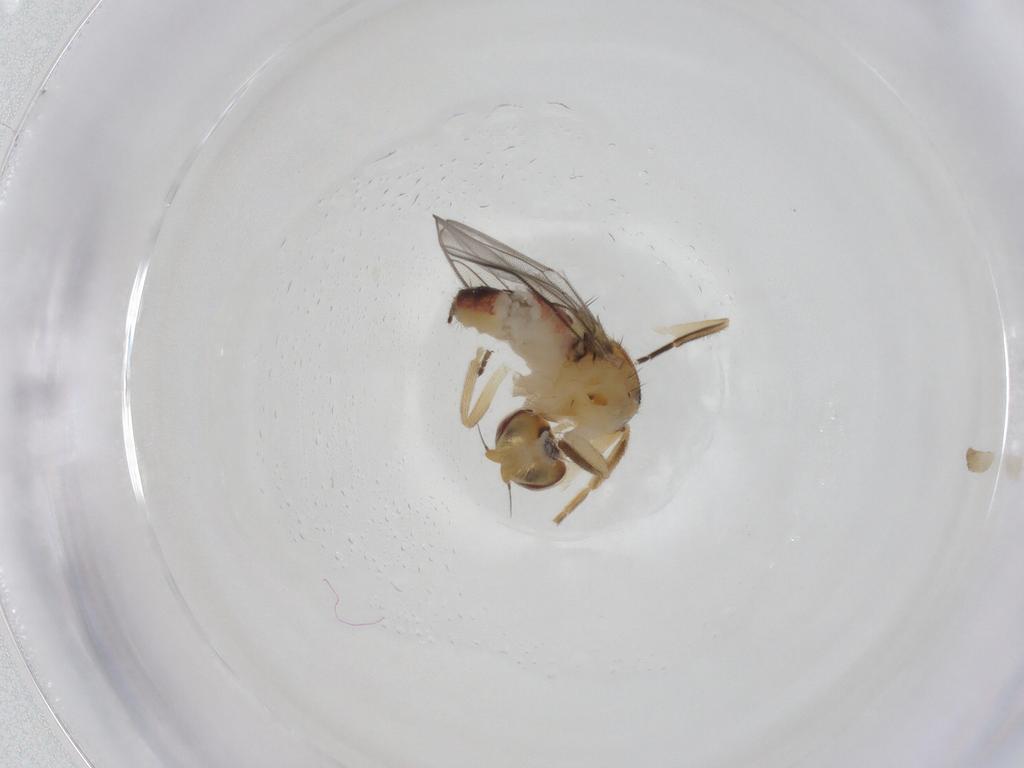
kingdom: Animalia
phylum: Arthropoda
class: Insecta
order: Diptera
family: Chloropidae
